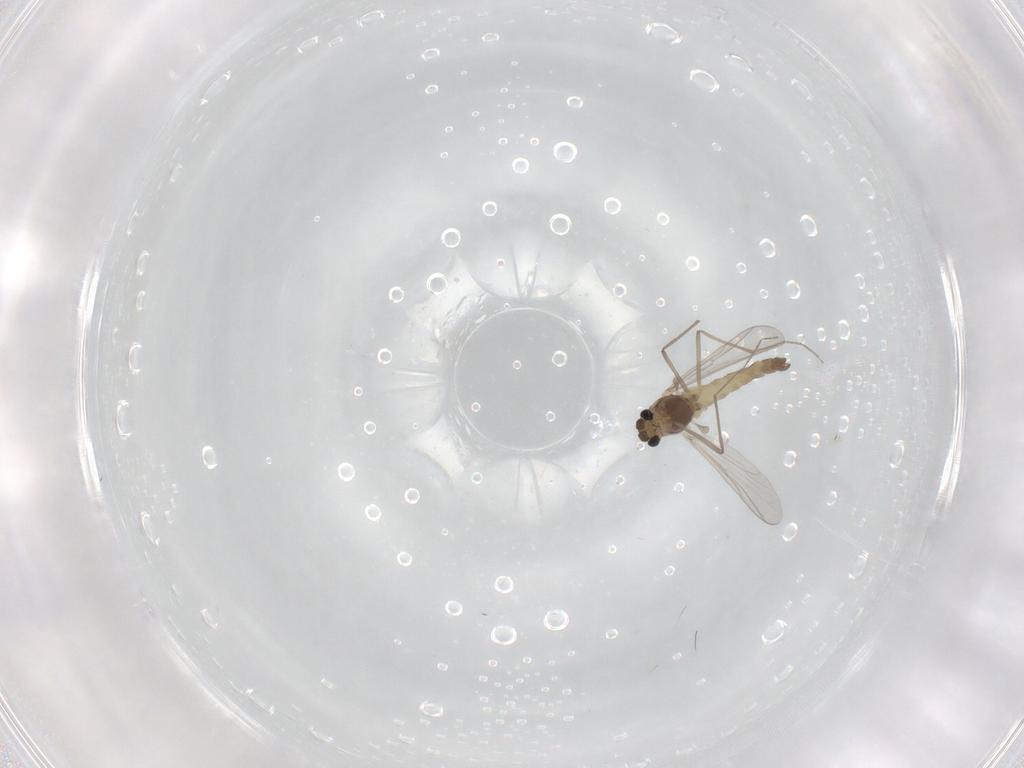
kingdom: Animalia
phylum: Arthropoda
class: Insecta
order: Diptera
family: Chironomidae
